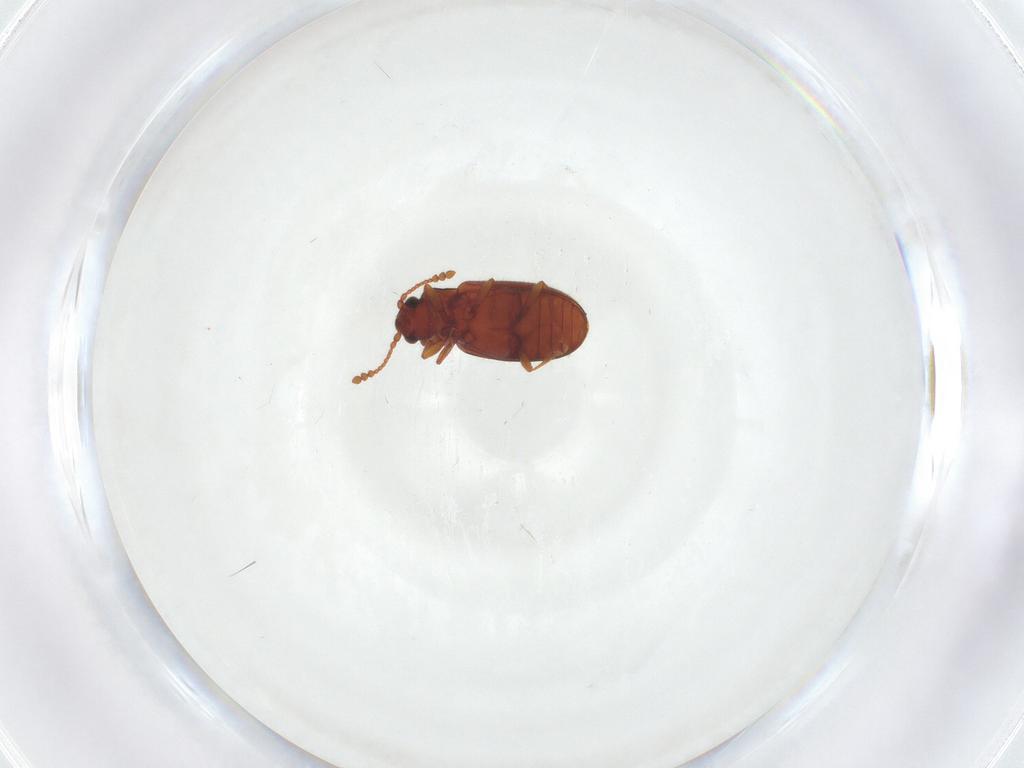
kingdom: Animalia
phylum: Arthropoda
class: Insecta
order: Coleoptera
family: Cryptophagidae
